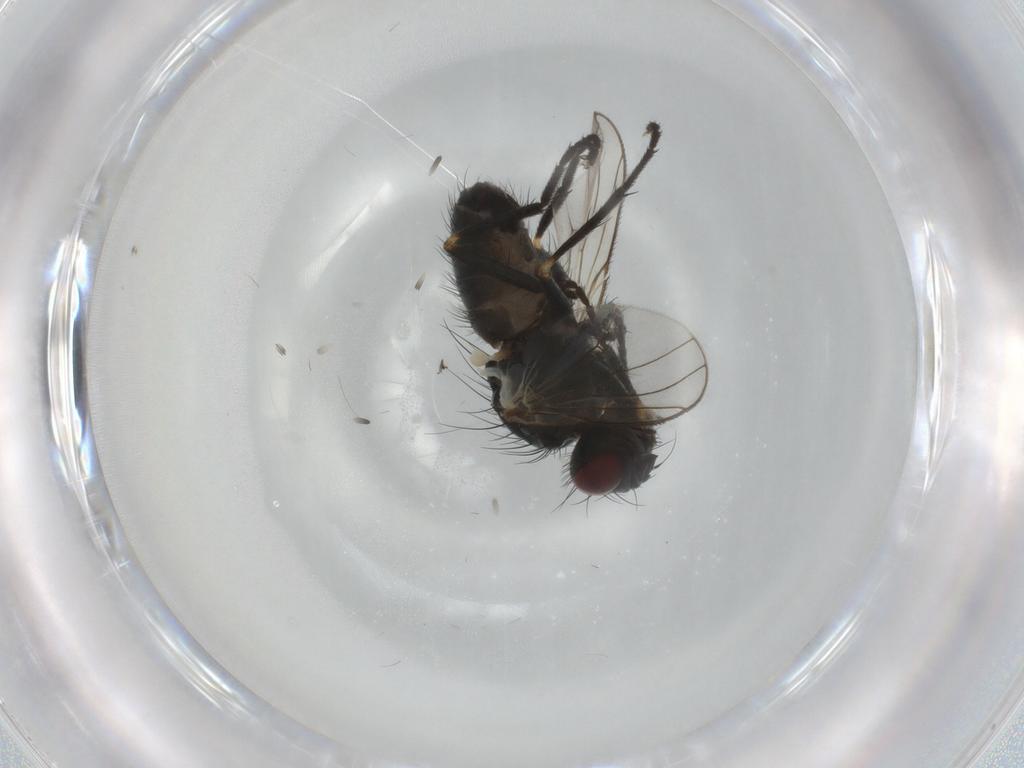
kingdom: Animalia
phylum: Arthropoda
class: Insecta
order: Diptera
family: Muscidae
